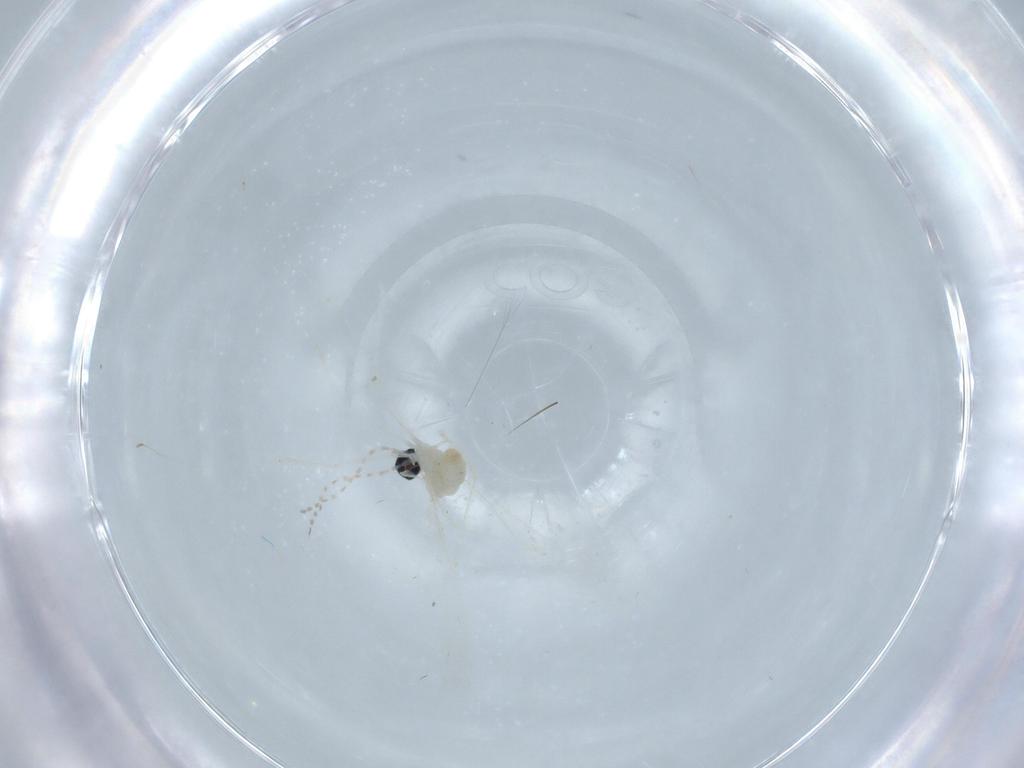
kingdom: Animalia
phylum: Arthropoda
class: Insecta
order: Diptera
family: Cecidomyiidae
